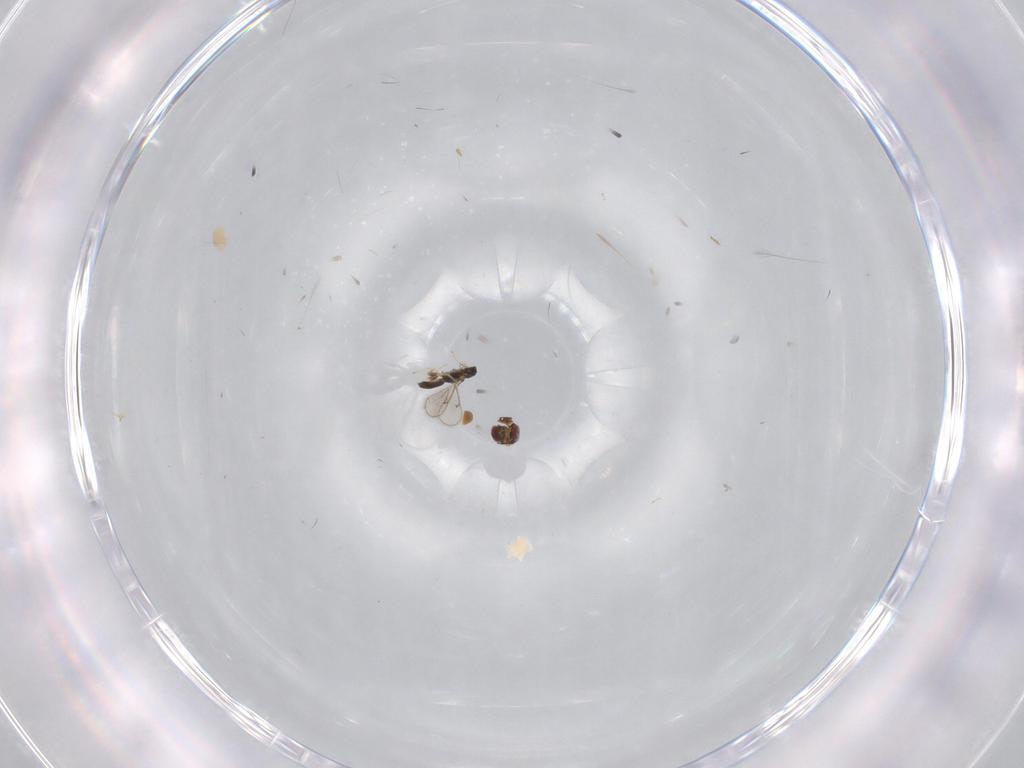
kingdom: Animalia
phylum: Arthropoda
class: Insecta
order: Hymenoptera
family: Eulophidae
